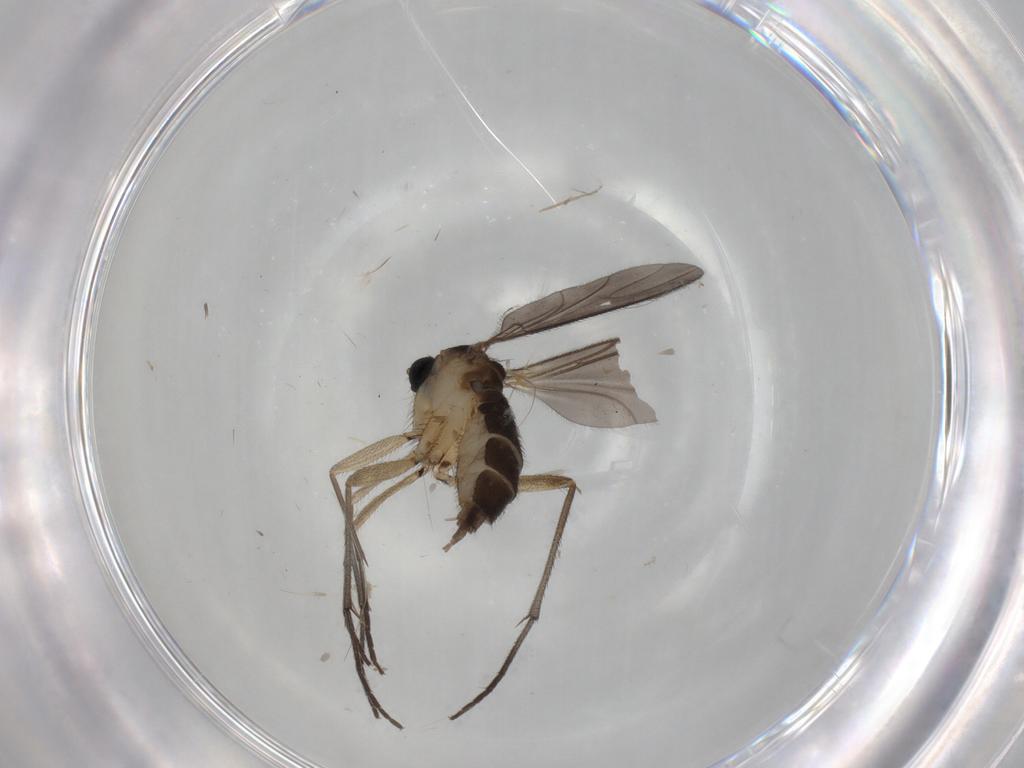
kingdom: Animalia
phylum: Arthropoda
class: Insecta
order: Diptera
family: Sciaridae
